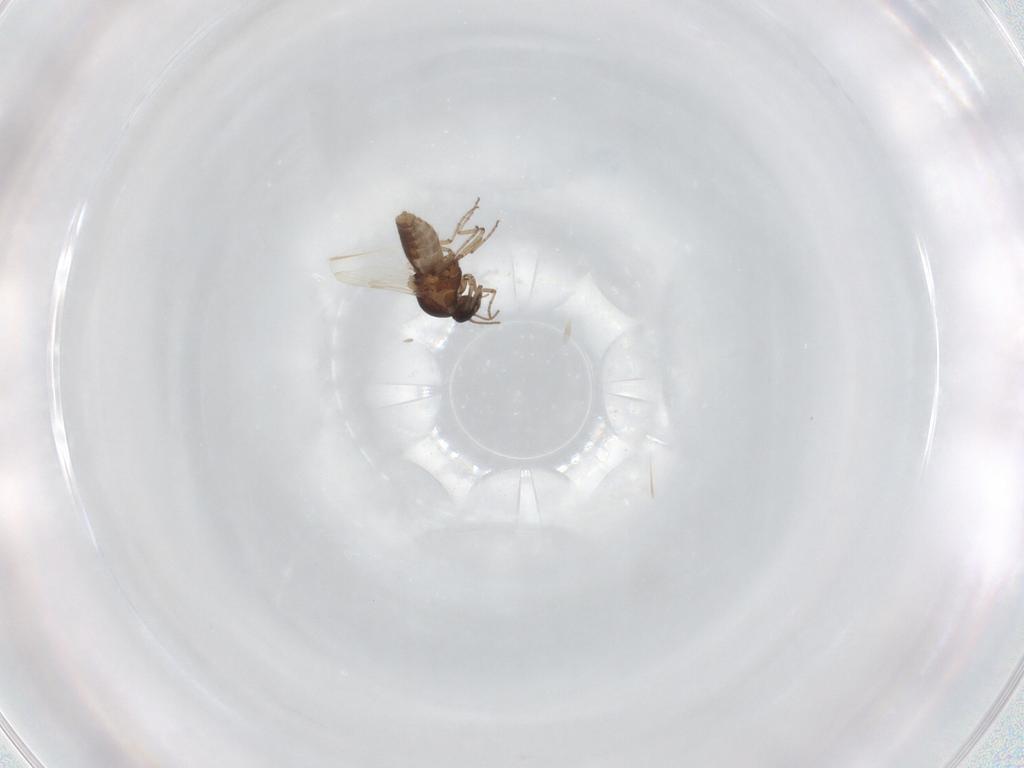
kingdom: Animalia
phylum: Arthropoda
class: Insecta
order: Diptera
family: Ceratopogonidae
